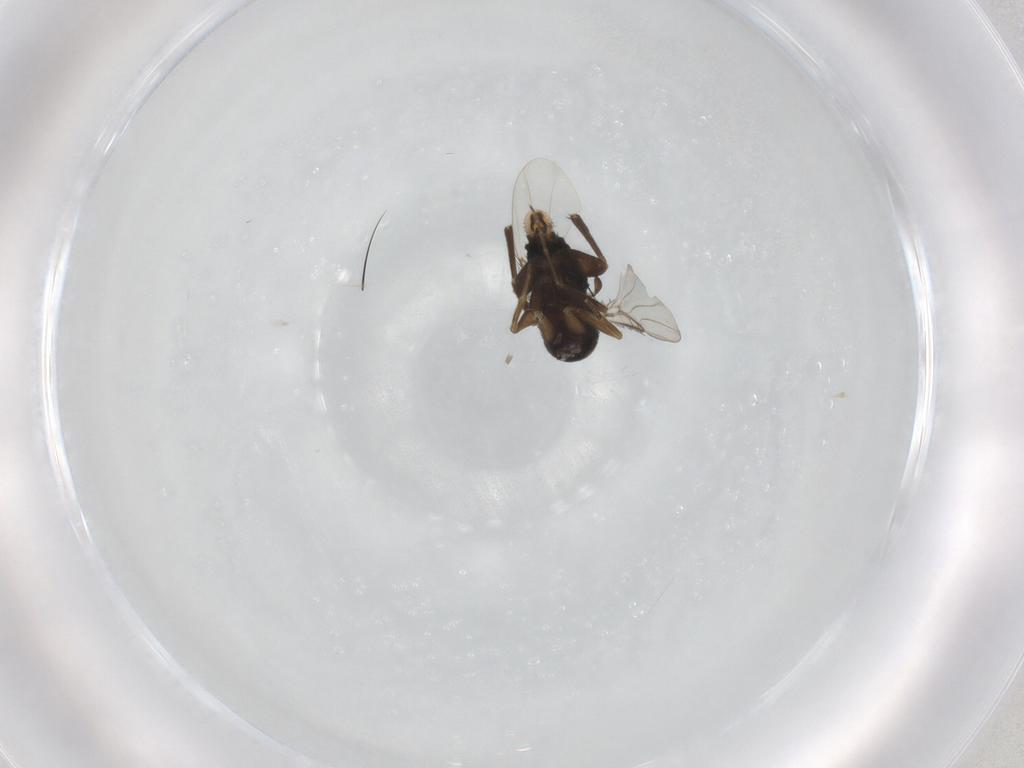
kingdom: Animalia
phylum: Arthropoda
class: Insecta
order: Diptera
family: Phoridae
